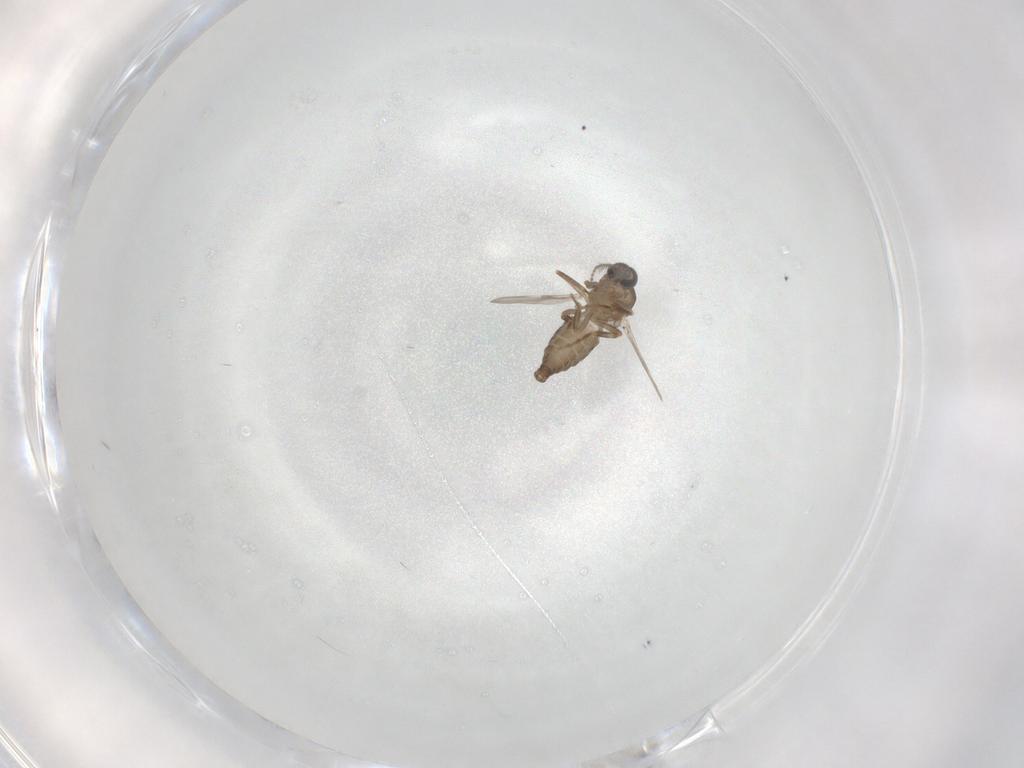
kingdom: Animalia
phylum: Arthropoda
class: Insecta
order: Diptera
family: Ceratopogonidae
